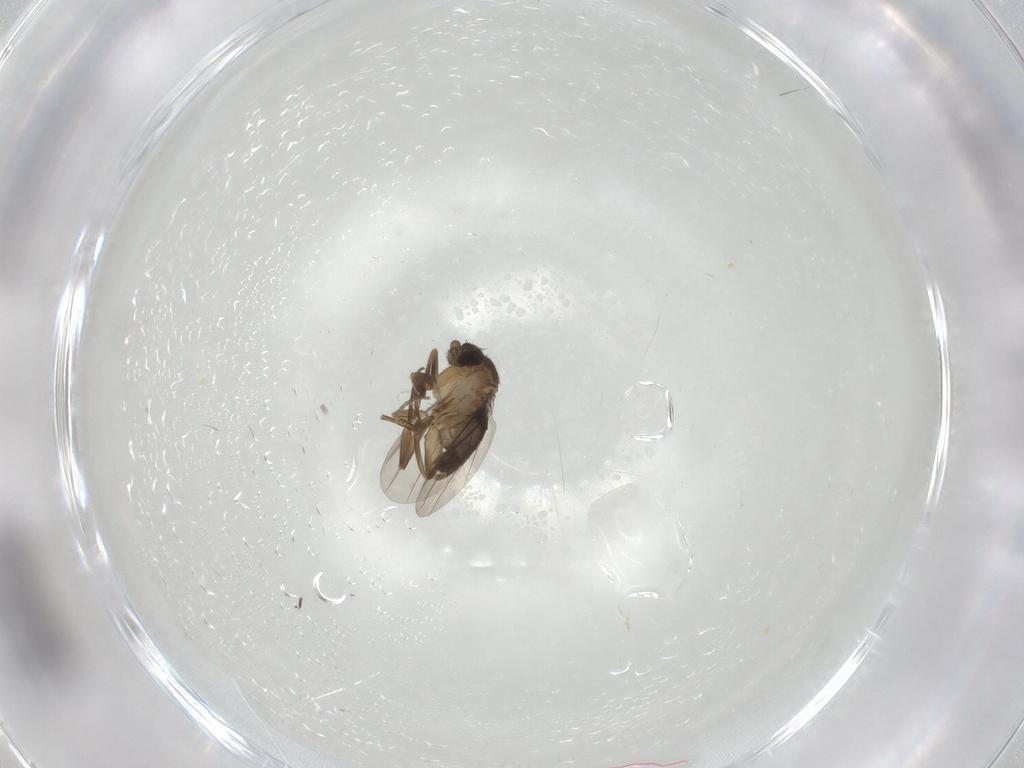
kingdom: Animalia
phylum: Arthropoda
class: Insecta
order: Diptera
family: Phoridae
